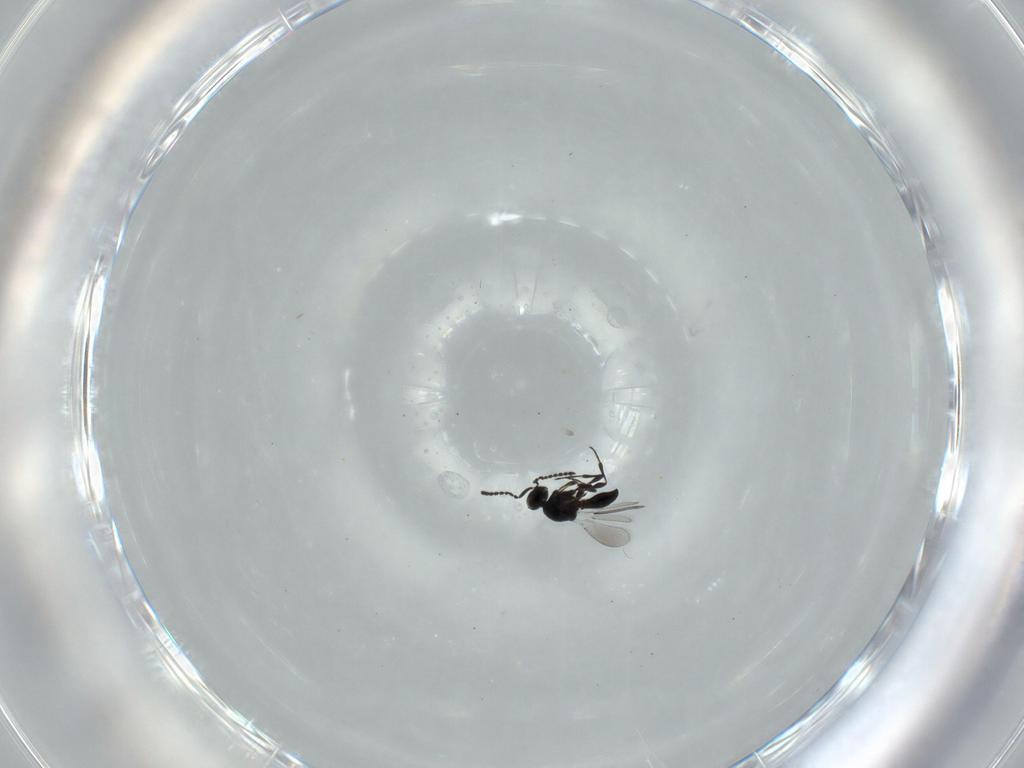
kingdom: Animalia
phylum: Arthropoda
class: Insecta
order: Hymenoptera
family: Platygastridae
